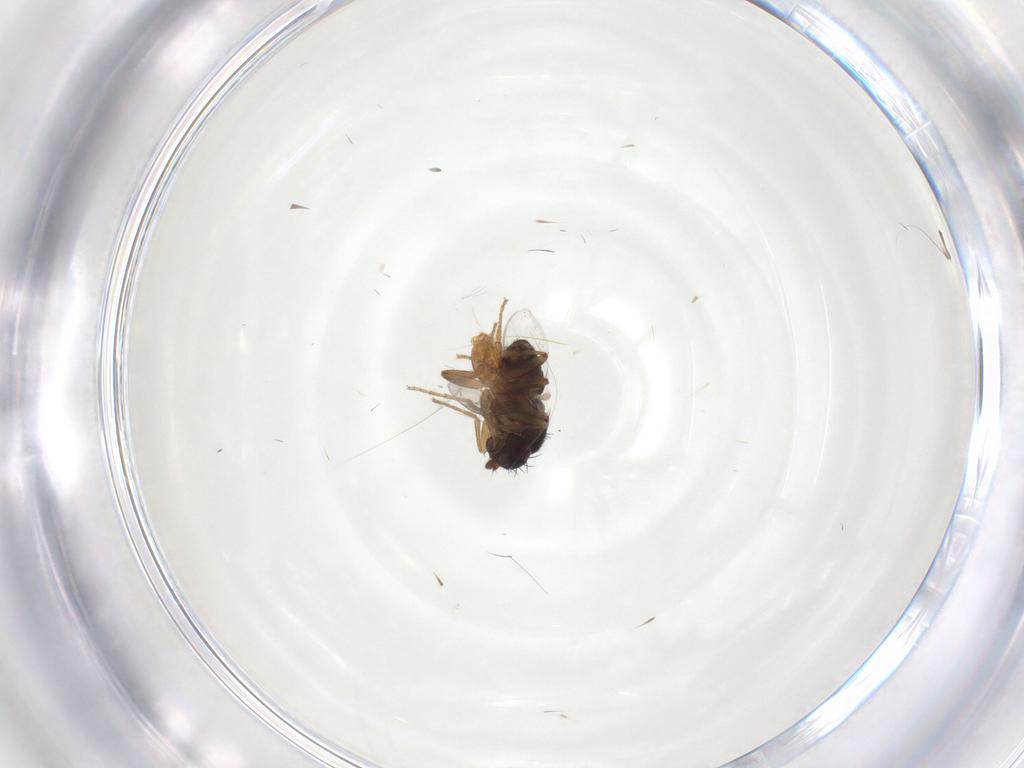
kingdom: Animalia
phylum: Arthropoda
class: Insecta
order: Diptera
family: Sphaeroceridae
